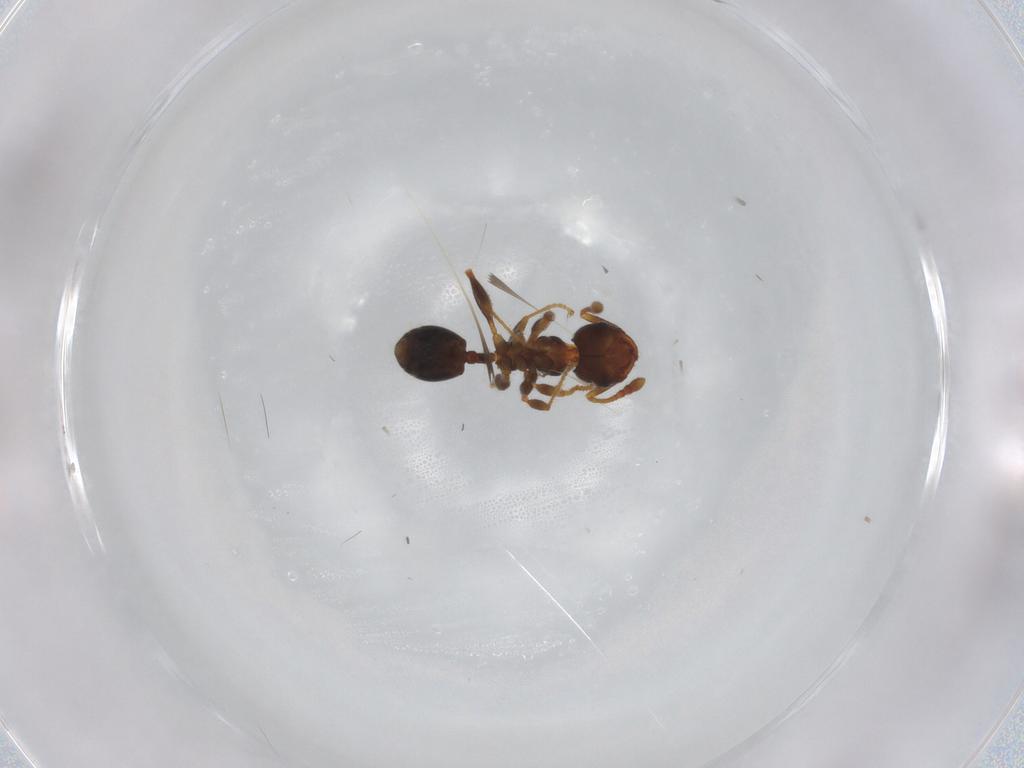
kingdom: Animalia
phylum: Arthropoda
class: Insecta
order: Hymenoptera
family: Formicidae
